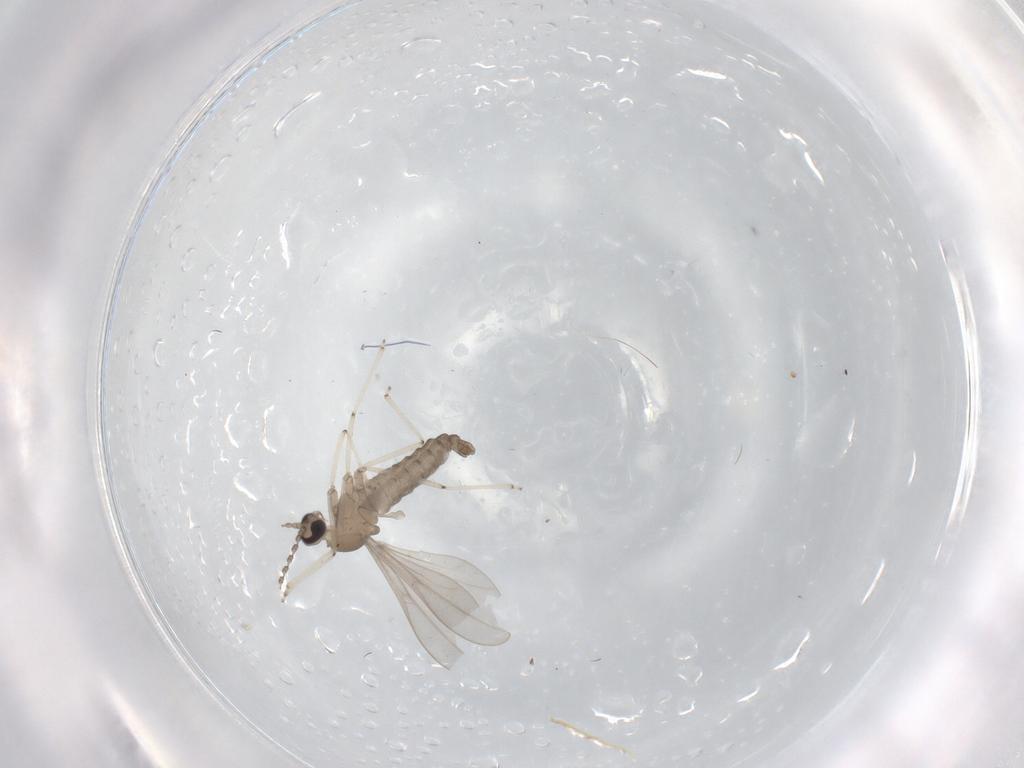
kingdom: Animalia
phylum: Arthropoda
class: Insecta
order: Diptera
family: Cecidomyiidae
